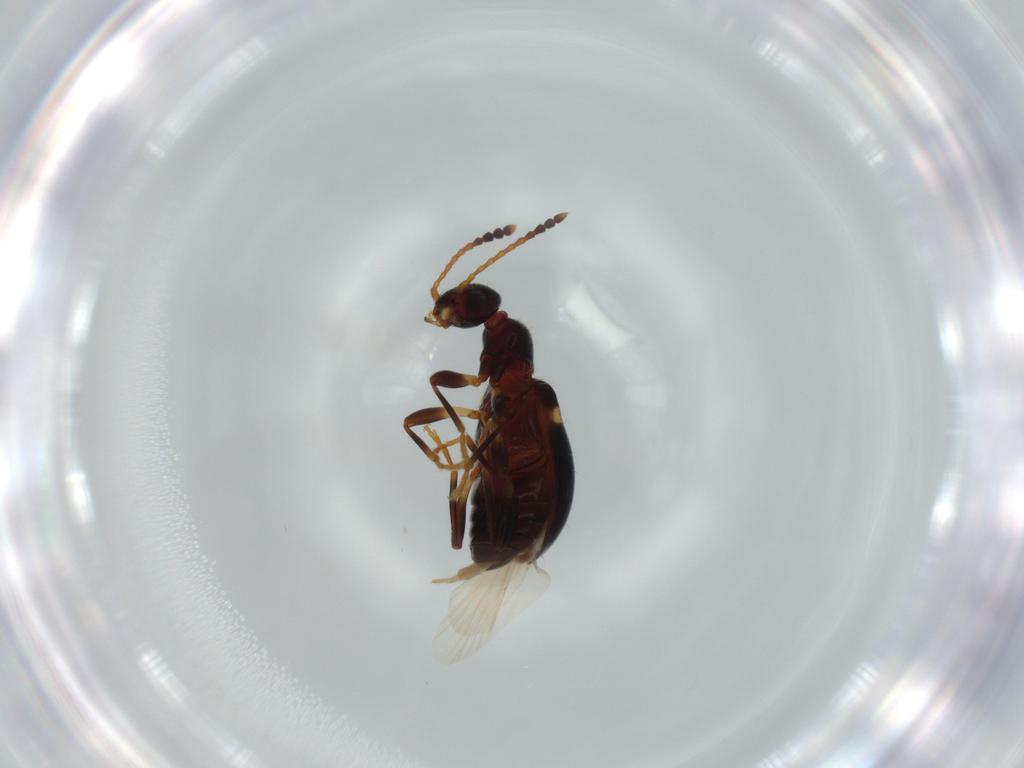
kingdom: Animalia
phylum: Arthropoda
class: Insecta
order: Coleoptera
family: Anthicidae
